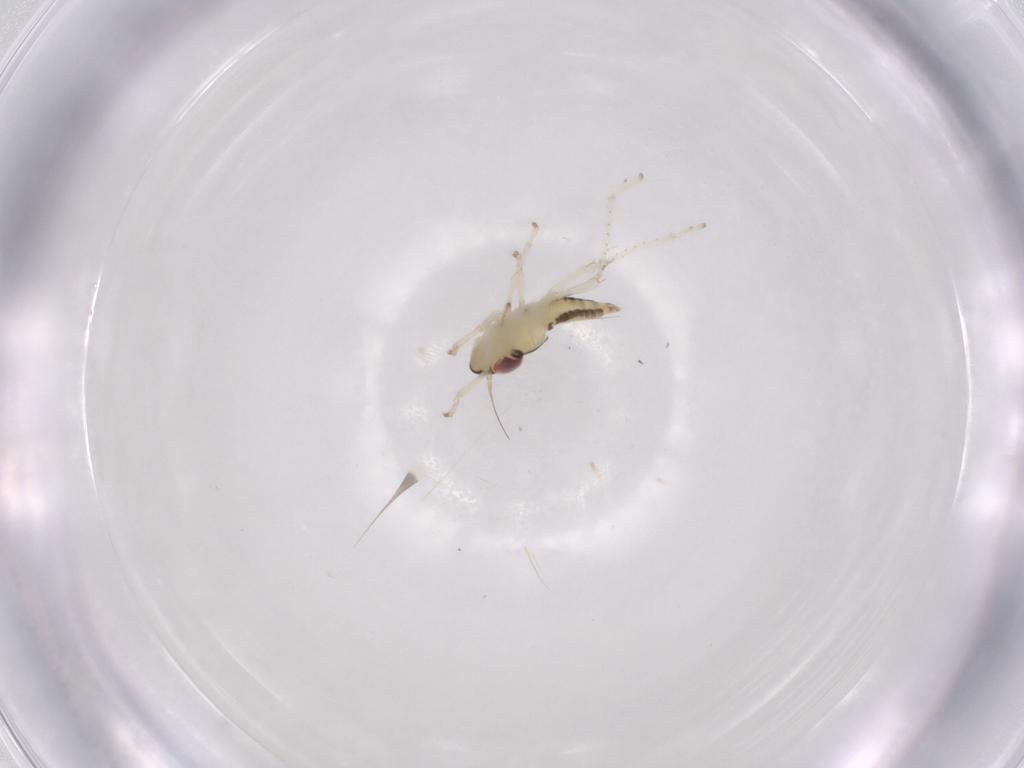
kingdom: Animalia
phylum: Arthropoda
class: Insecta
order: Hemiptera
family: Cicadellidae
